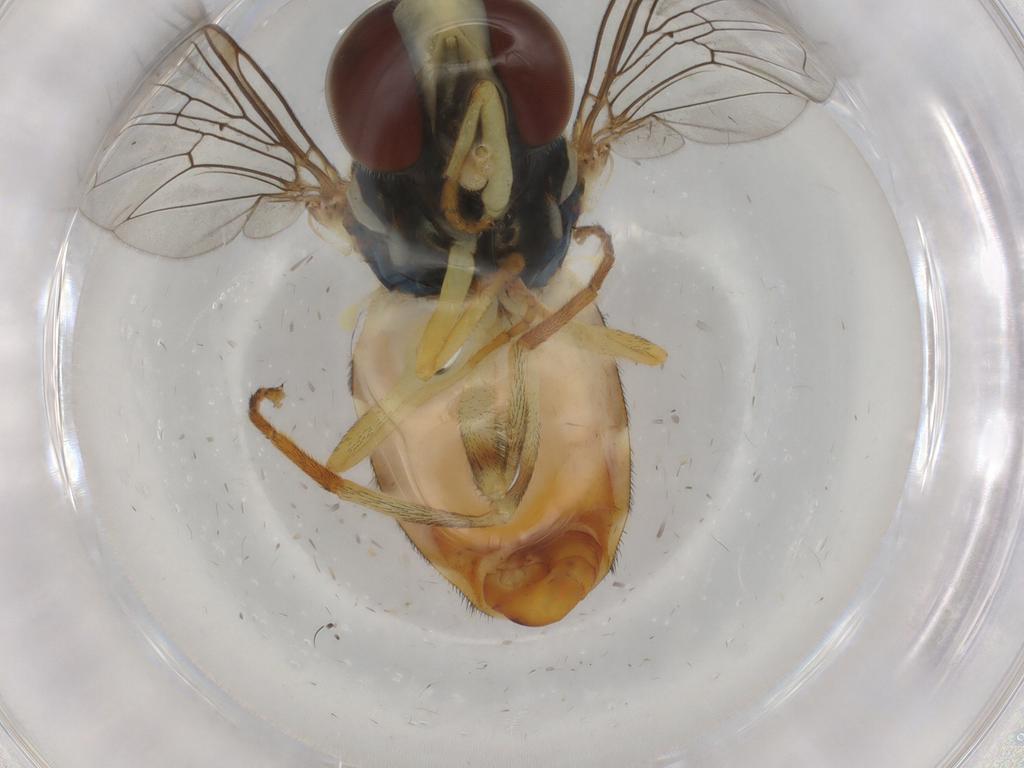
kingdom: Animalia
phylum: Arthropoda
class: Insecta
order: Diptera
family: Syrphidae
